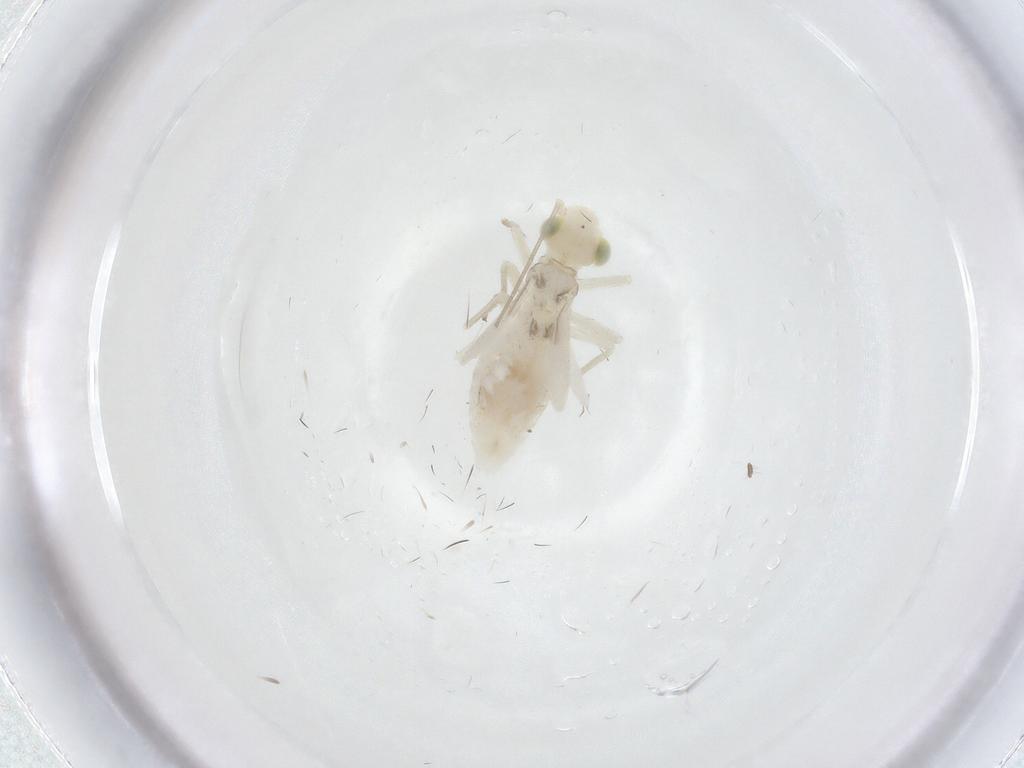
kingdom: Animalia
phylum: Arthropoda
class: Insecta
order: Psocodea
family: Caeciliusidae
